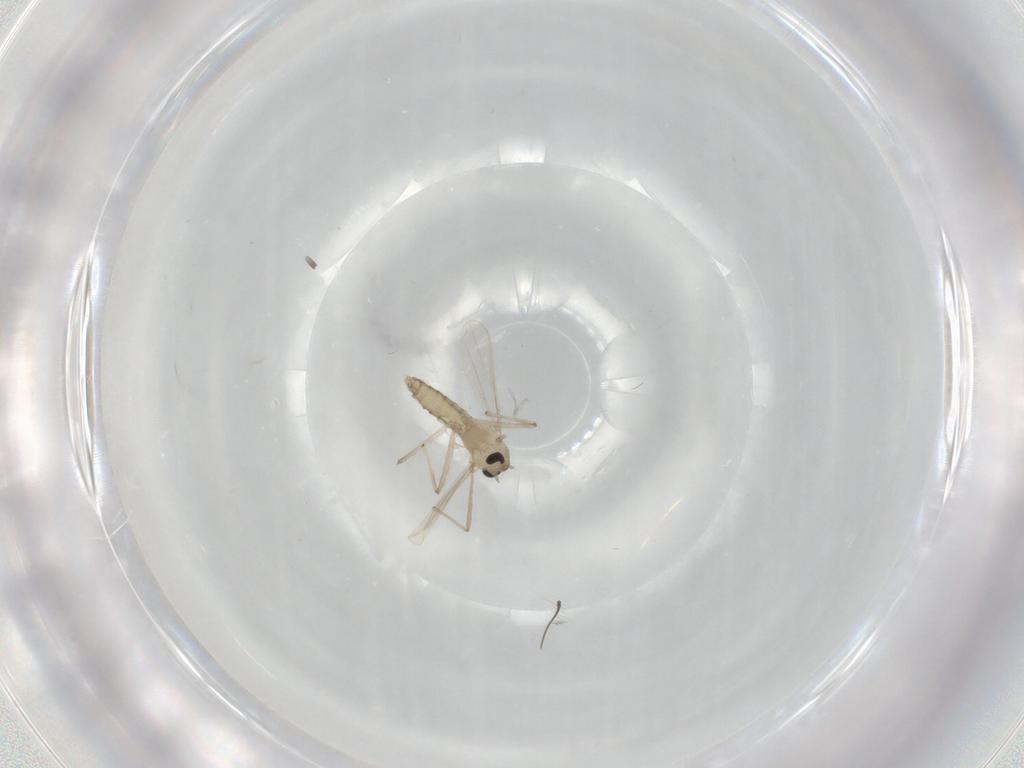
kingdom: Animalia
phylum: Arthropoda
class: Insecta
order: Diptera
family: Chironomidae
